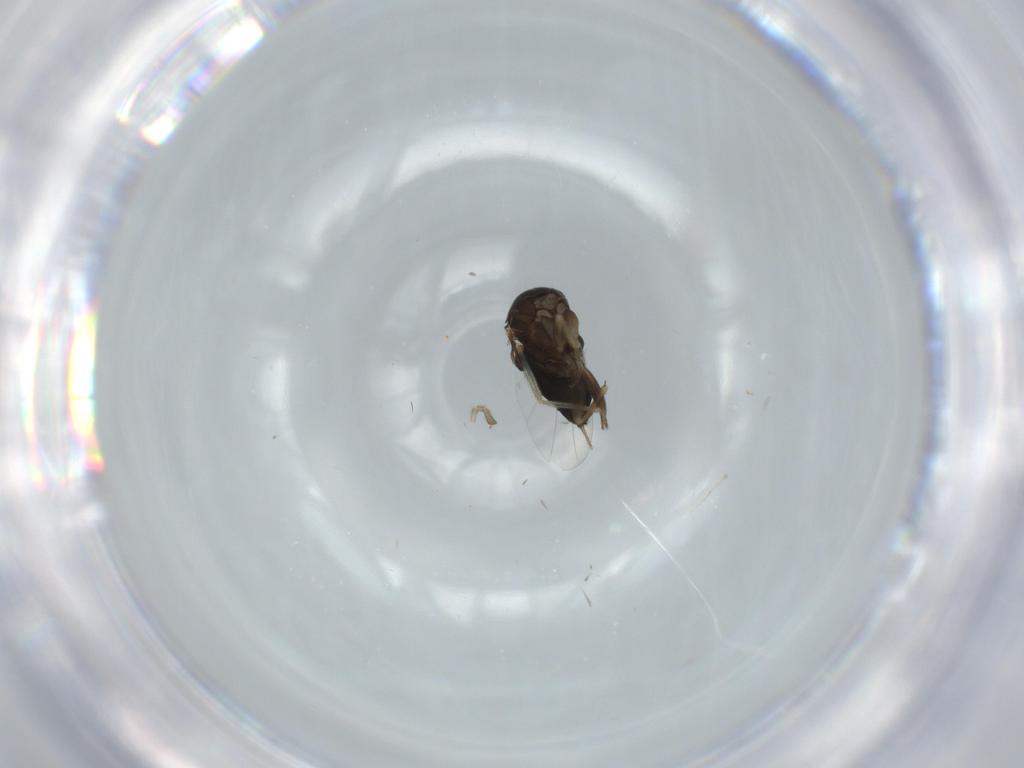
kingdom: Animalia
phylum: Arthropoda
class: Insecta
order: Diptera
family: Phoridae
